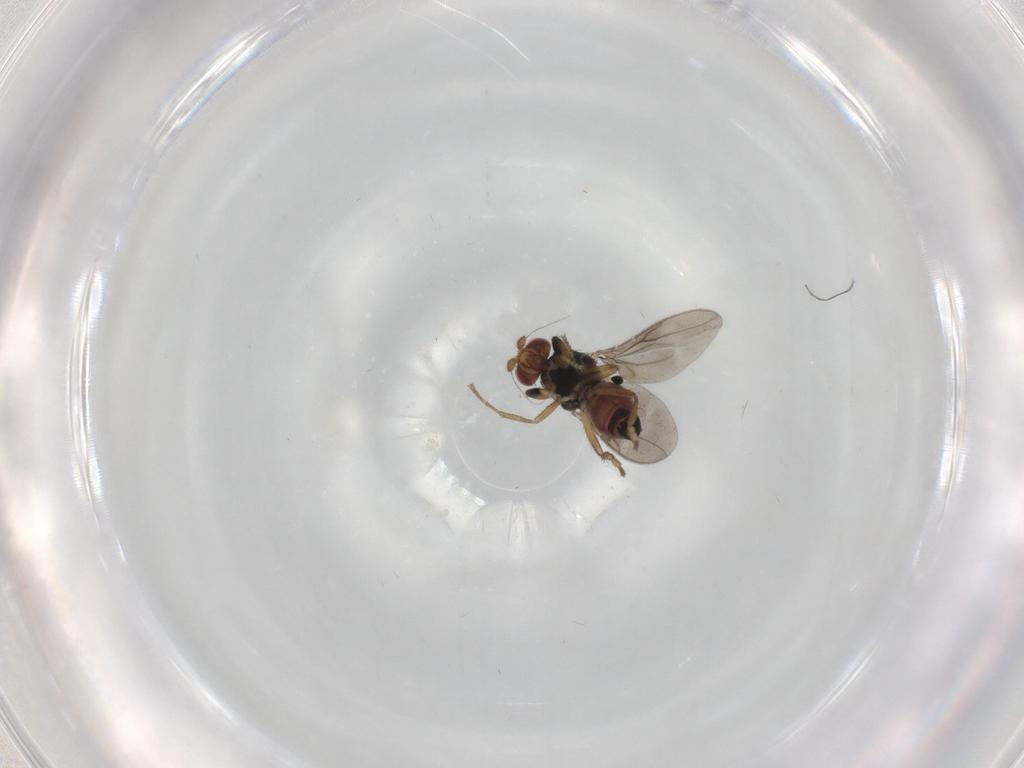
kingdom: Animalia
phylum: Arthropoda
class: Insecta
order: Diptera
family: Sphaeroceridae
